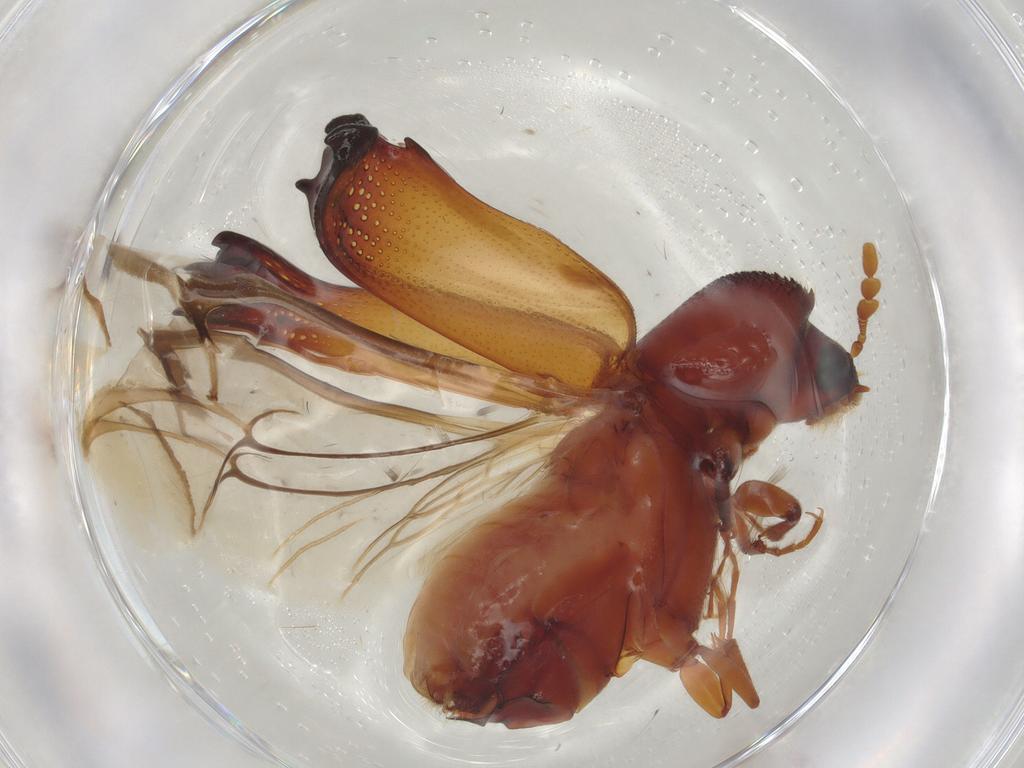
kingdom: Animalia
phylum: Arthropoda
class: Insecta
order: Coleoptera
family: Bostrichidae
